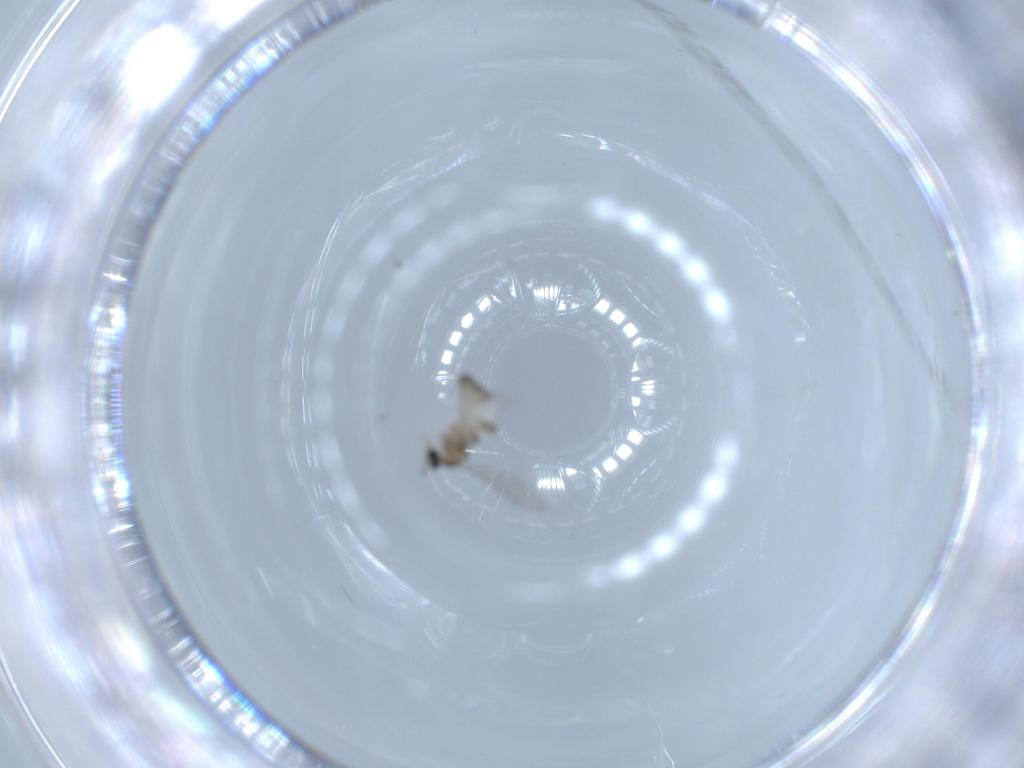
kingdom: Animalia
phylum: Arthropoda
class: Insecta
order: Diptera
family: Cecidomyiidae
